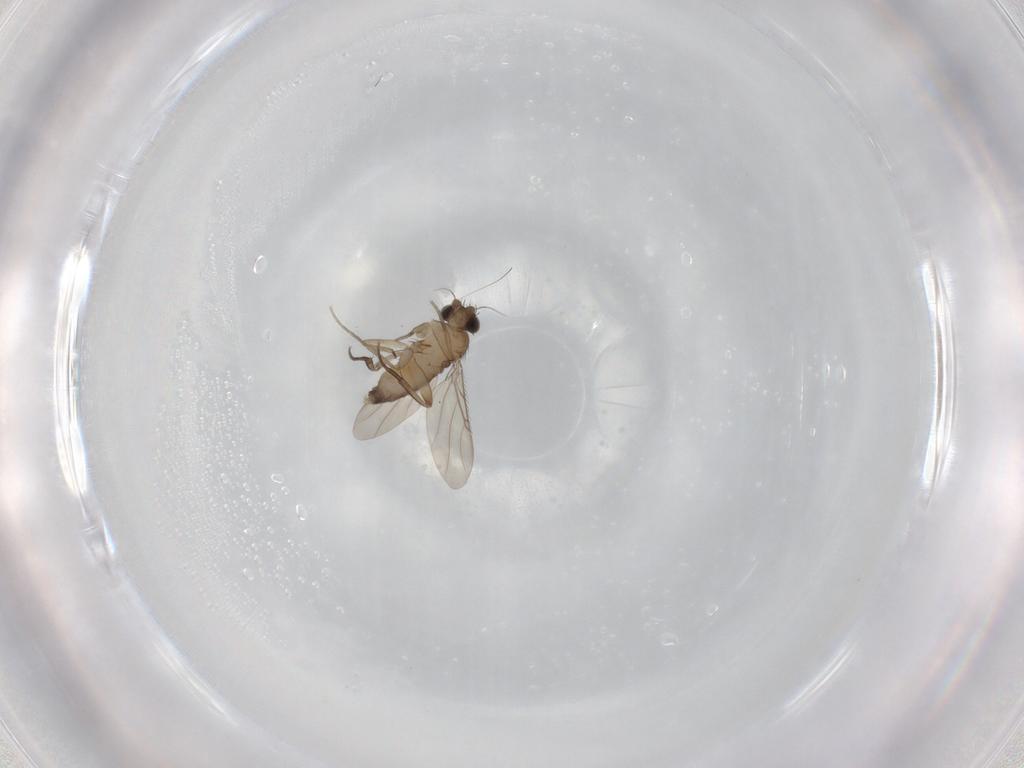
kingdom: Animalia
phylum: Arthropoda
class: Insecta
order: Diptera
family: Phoridae
